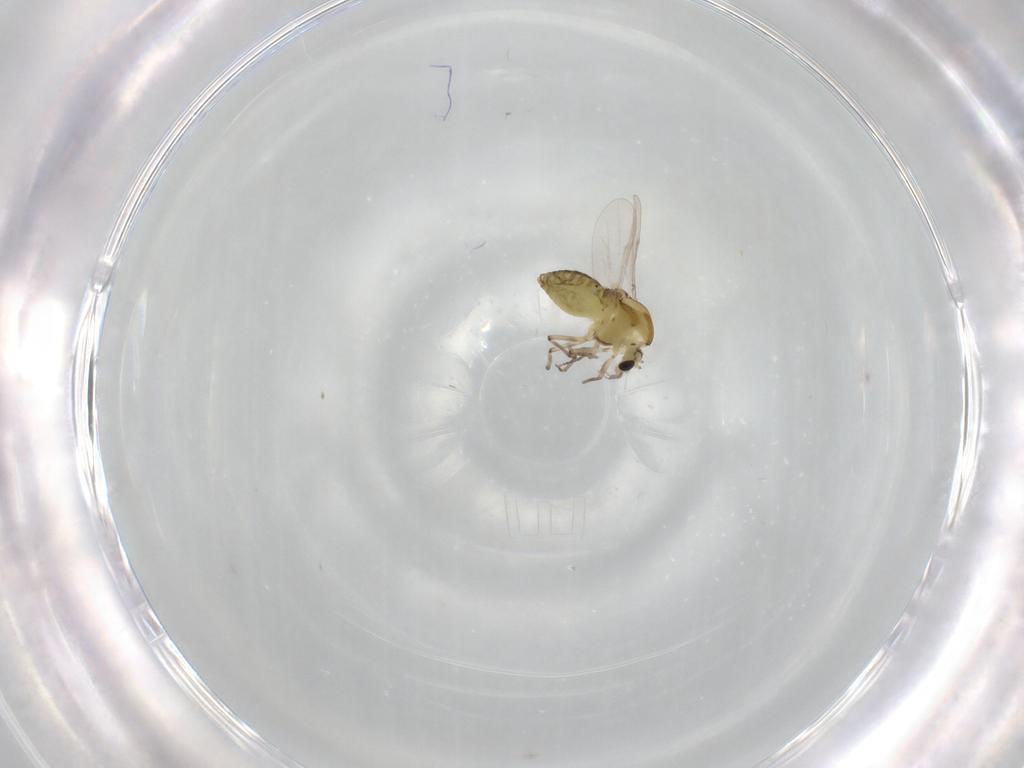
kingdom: Animalia
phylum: Arthropoda
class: Insecta
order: Diptera
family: Chironomidae
